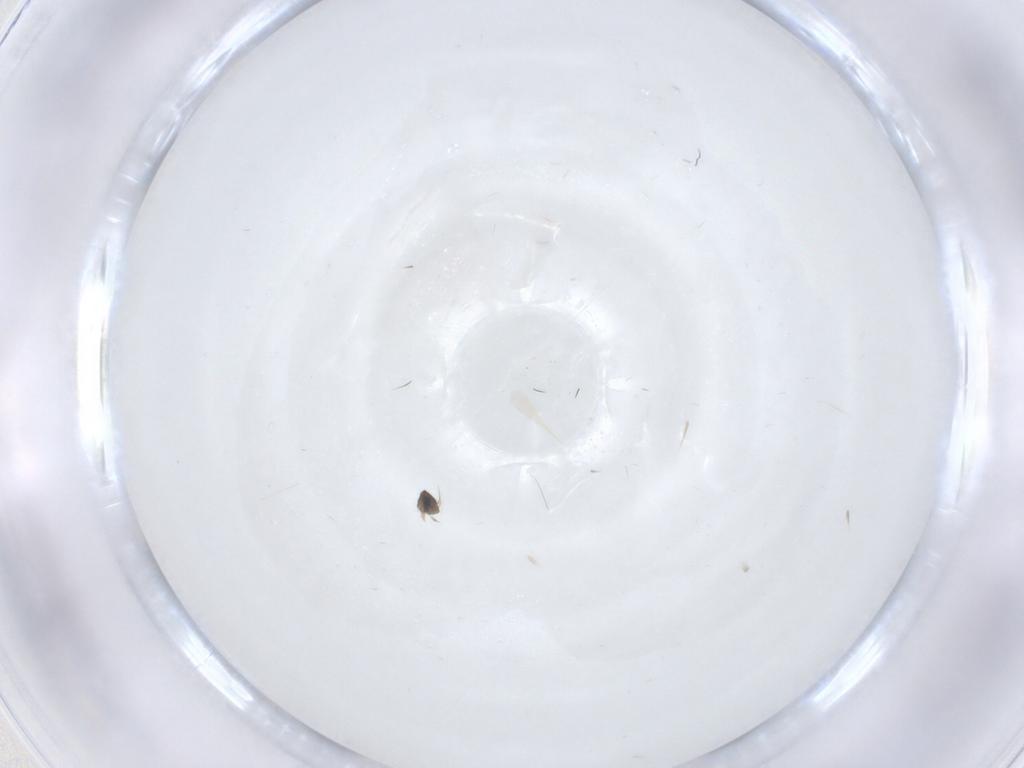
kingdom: Animalia
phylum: Arthropoda
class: Insecta
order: Diptera
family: Phoridae
